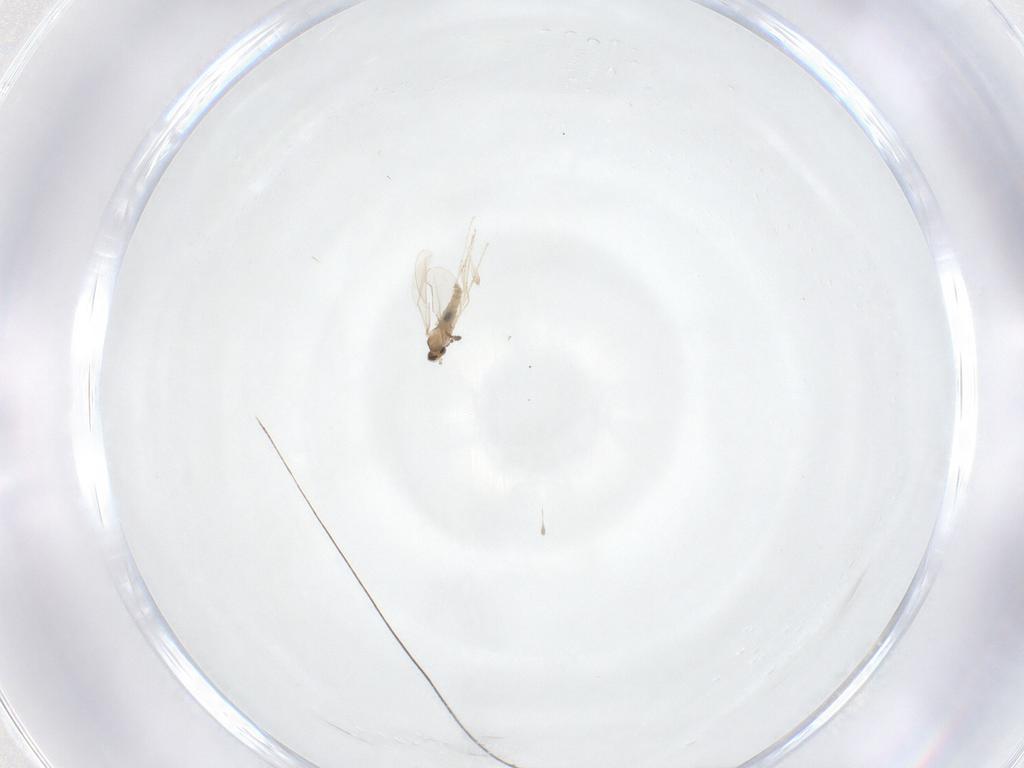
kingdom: Animalia
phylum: Arthropoda
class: Insecta
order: Diptera
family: Cecidomyiidae
